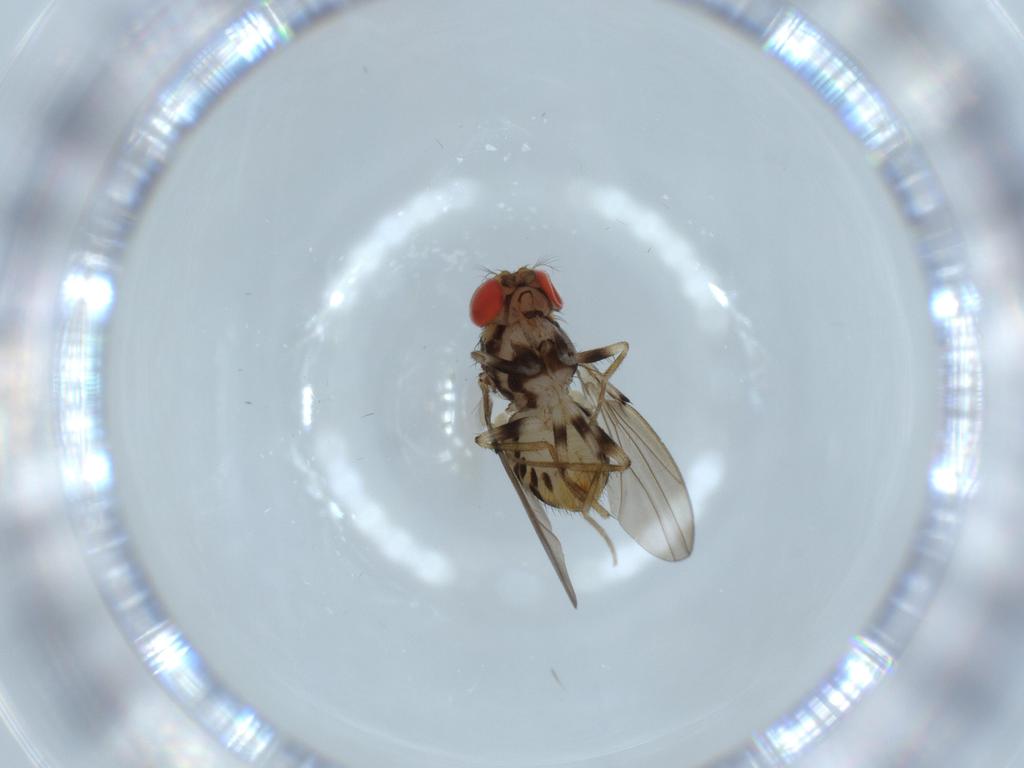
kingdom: Animalia
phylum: Arthropoda
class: Insecta
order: Diptera
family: Drosophilidae
